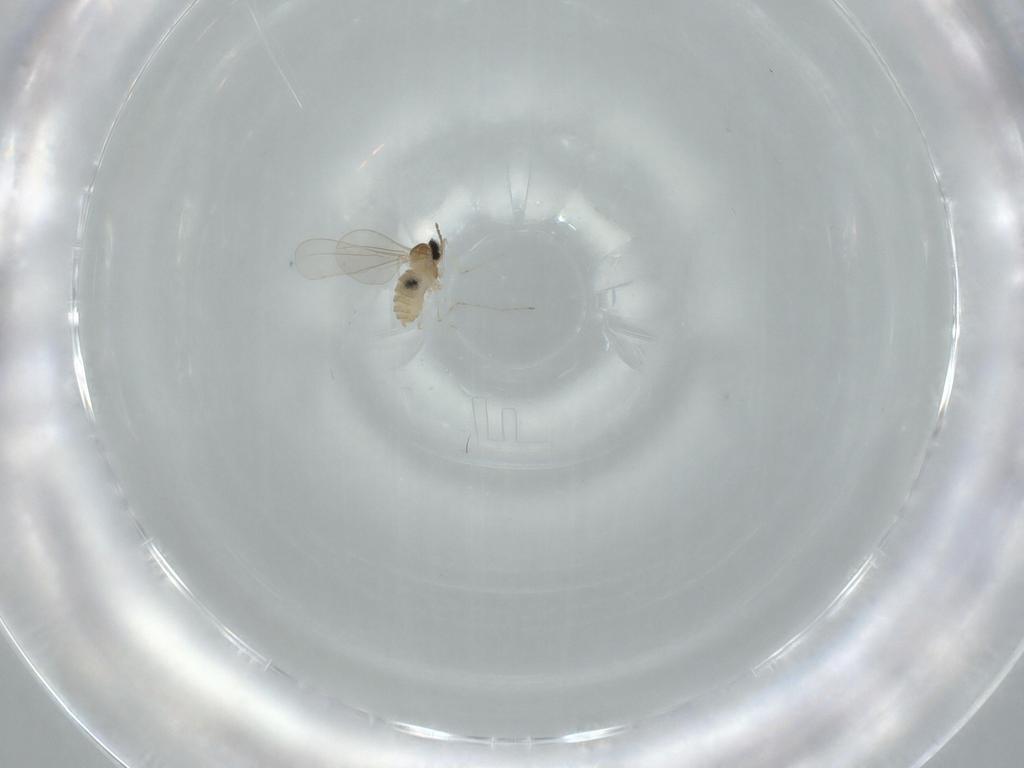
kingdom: Animalia
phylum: Arthropoda
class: Insecta
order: Diptera
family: Cecidomyiidae
